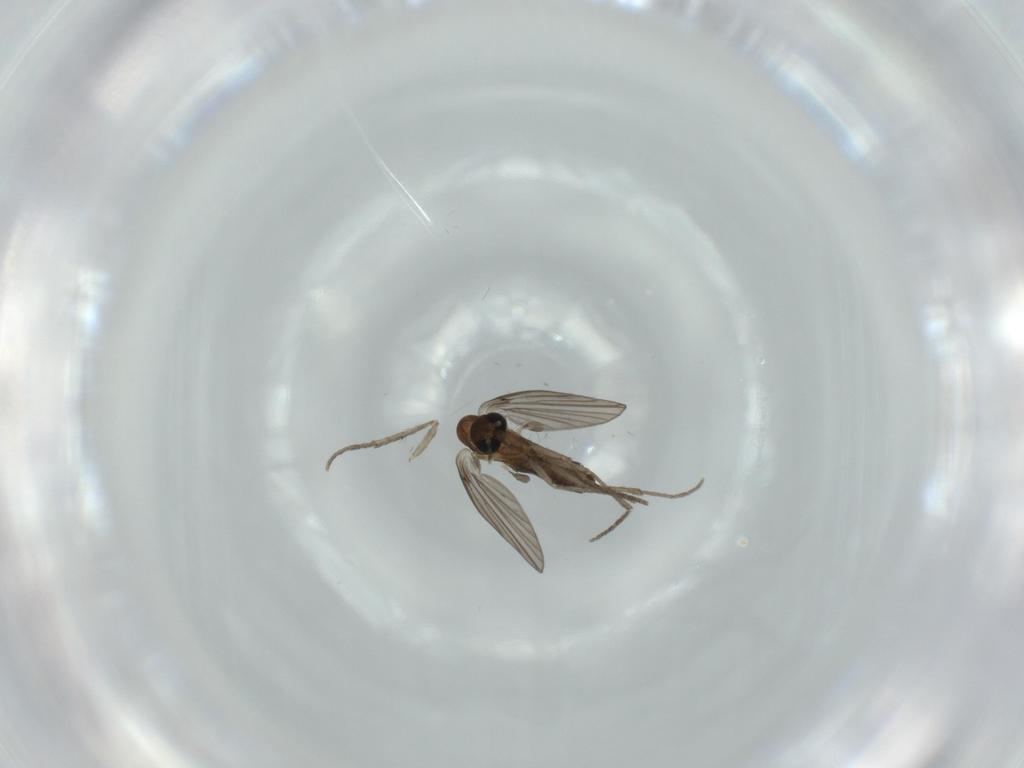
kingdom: Animalia
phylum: Arthropoda
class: Insecta
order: Diptera
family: Psychodidae
